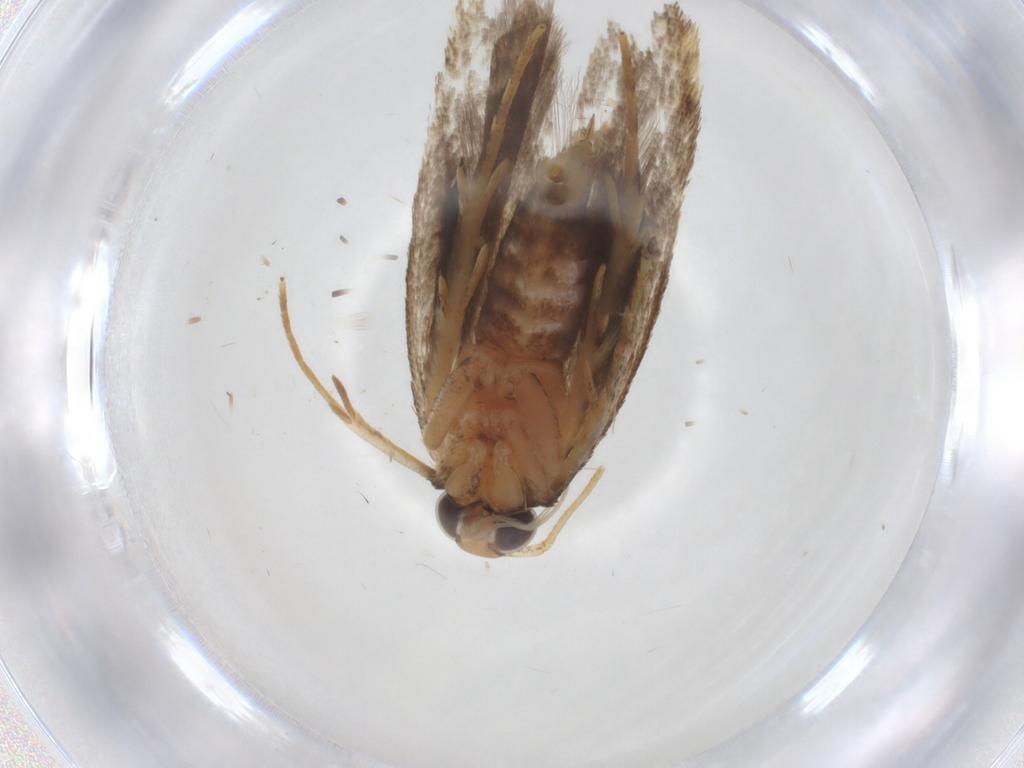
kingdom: Animalia
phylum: Arthropoda
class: Insecta
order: Lepidoptera
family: Gelechiidae
